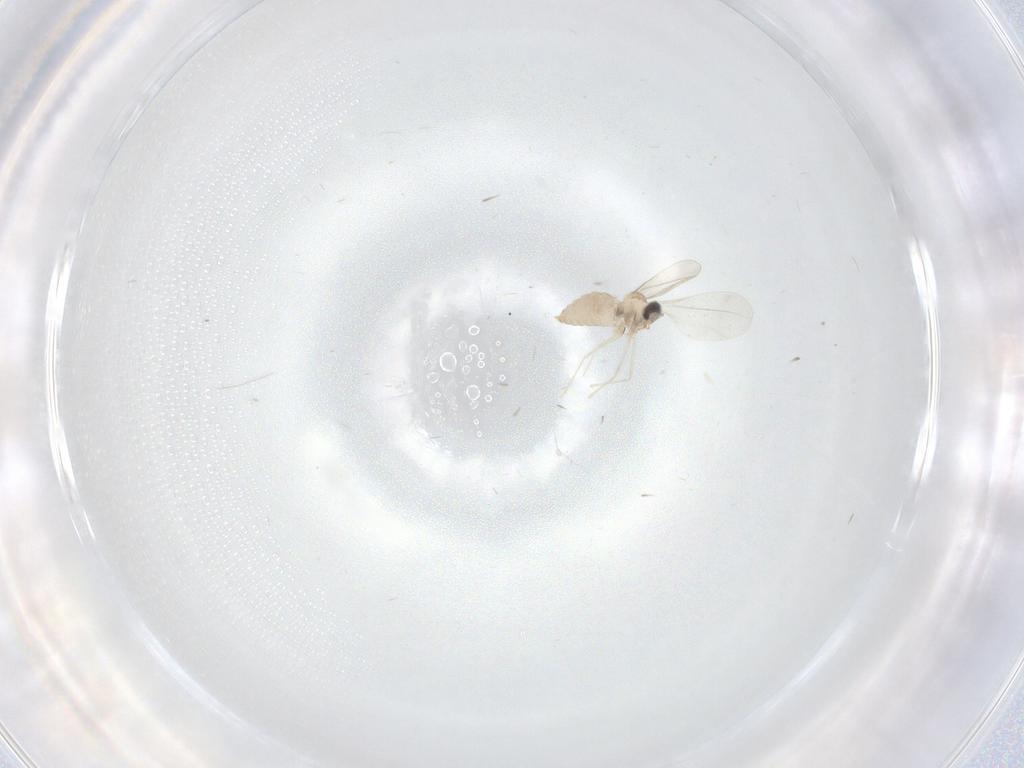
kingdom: Animalia
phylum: Arthropoda
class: Insecta
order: Diptera
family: Cecidomyiidae
